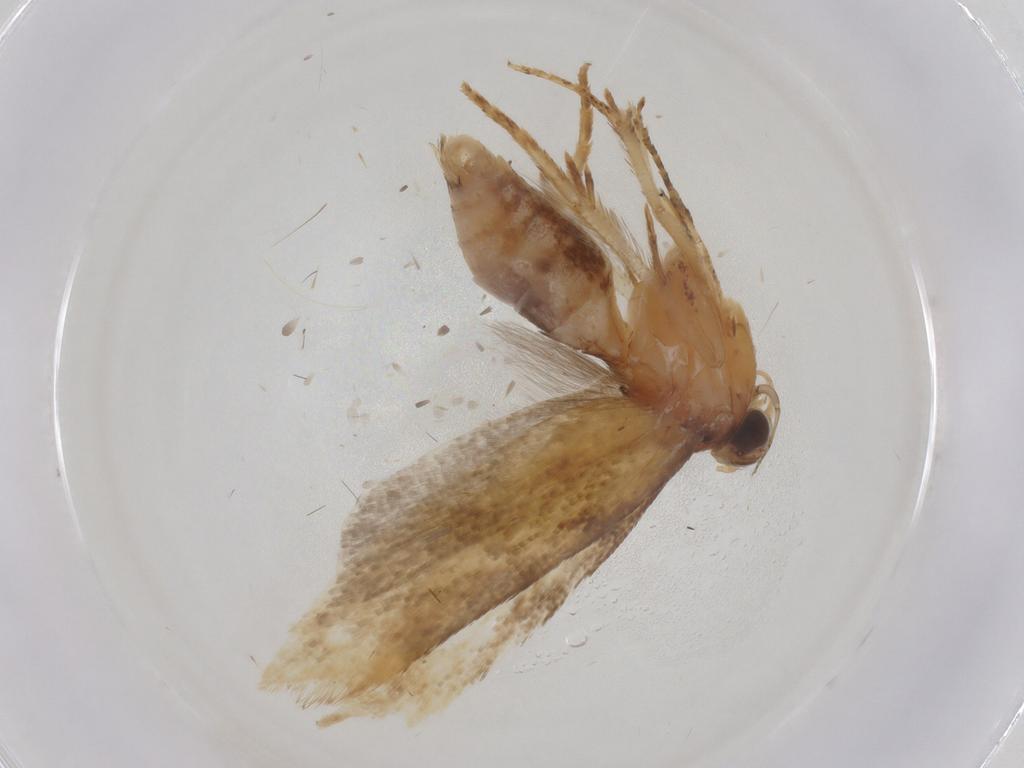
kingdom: Animalia
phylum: Arthropoda
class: Insecta
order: Lepidoptera
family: Gelechiidae
